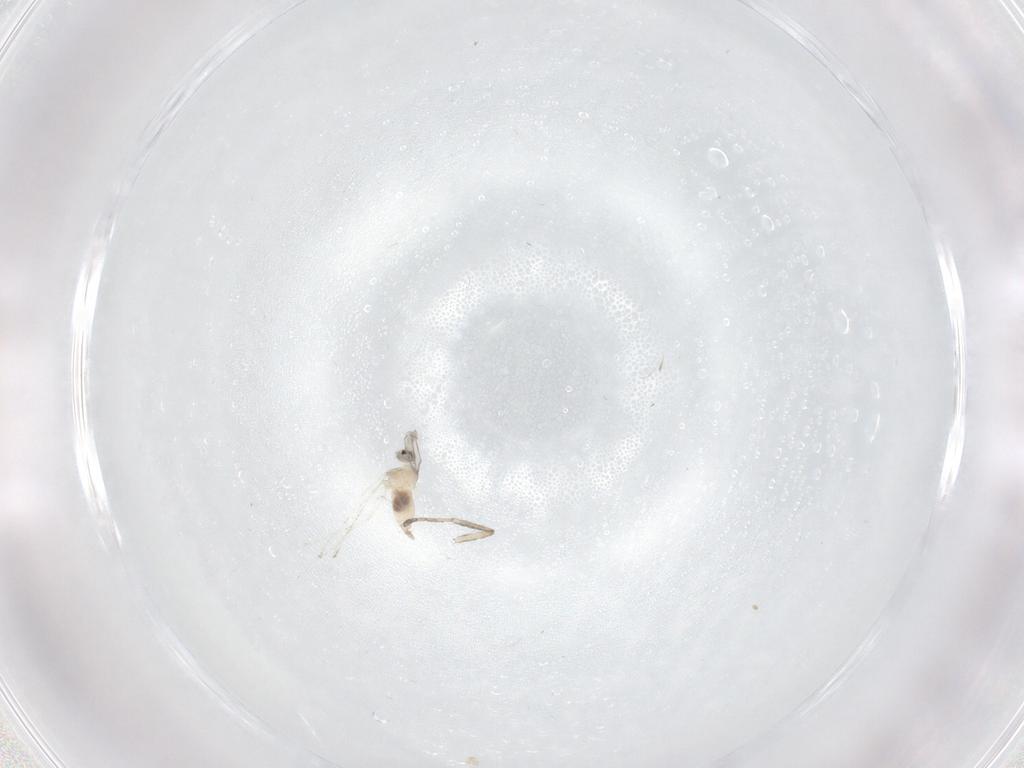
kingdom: Animalia
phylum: Arthropoda
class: Insecta
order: Diptera
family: Cecidomyiidae
